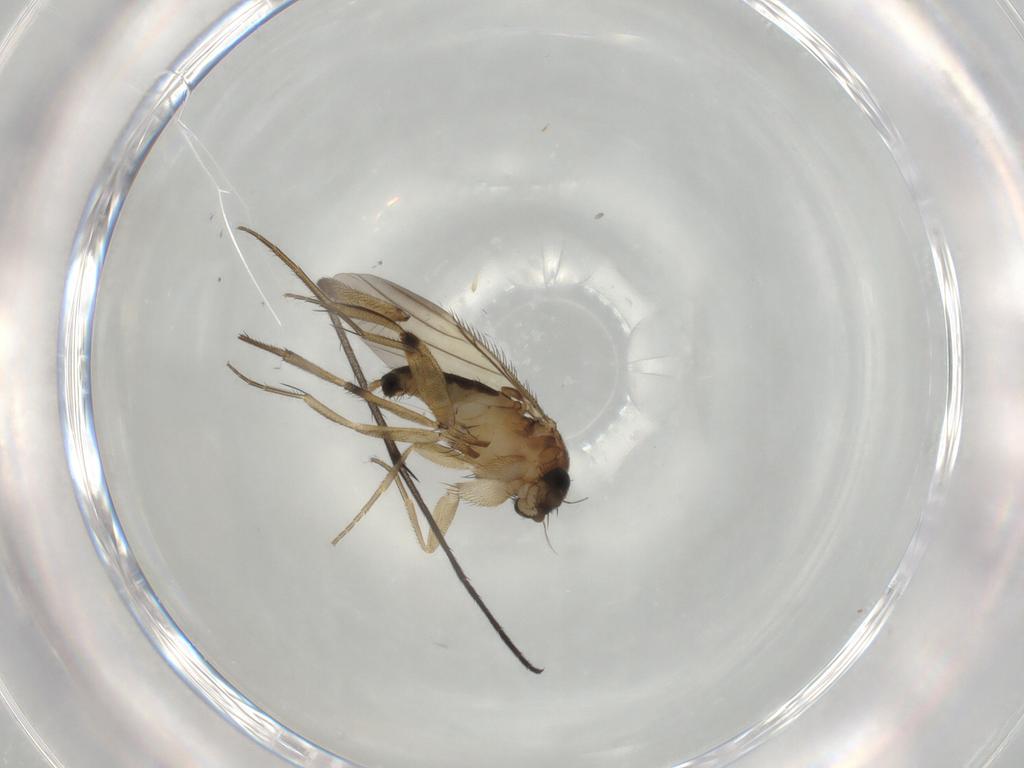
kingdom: Animalia
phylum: Arthropoda
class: Insecta
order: Diptera
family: Phoridae
